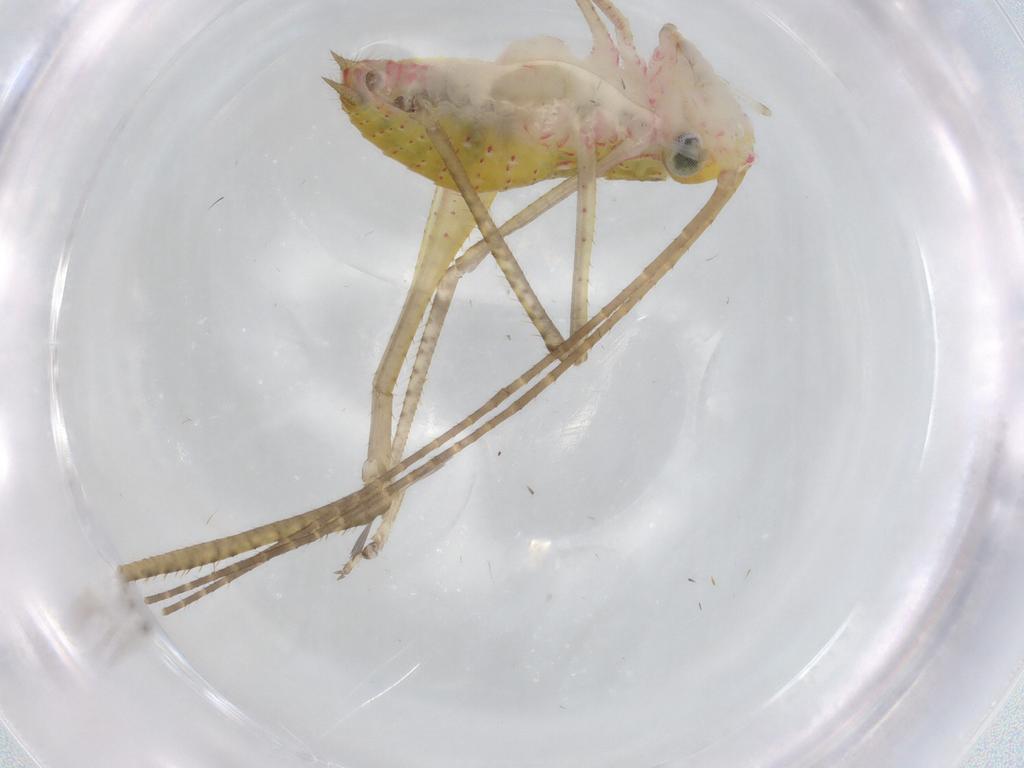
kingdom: Animalia
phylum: Arthropoda
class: Insecta
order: Orthoptera
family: Tettigoniidae
